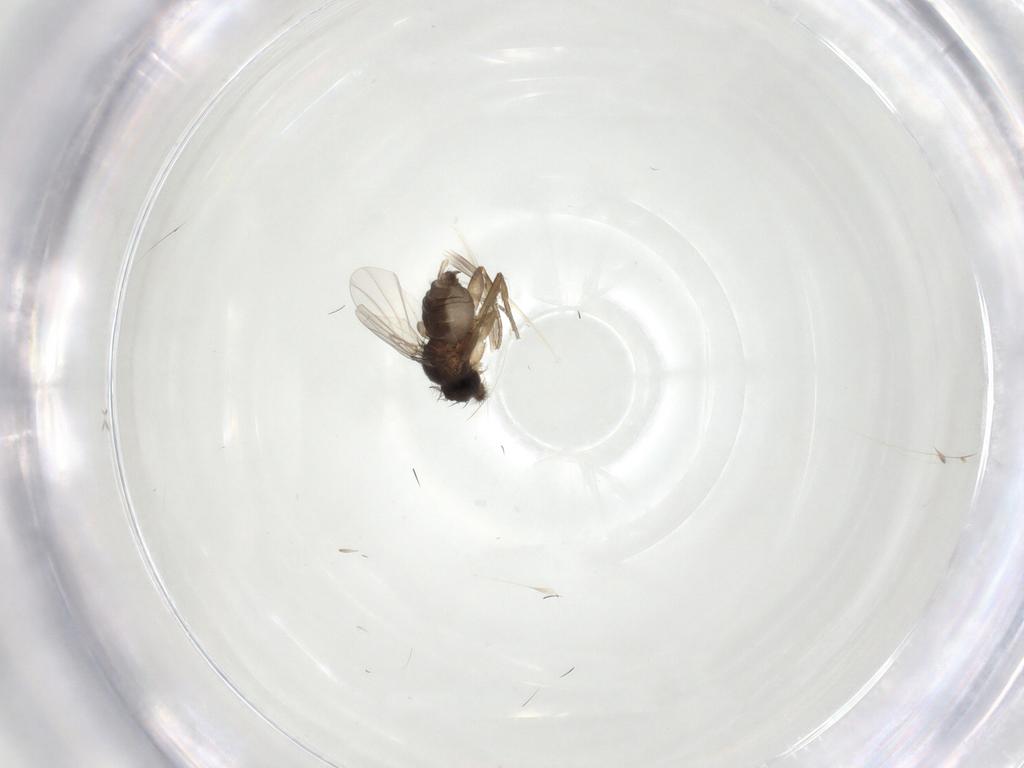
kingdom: Animalia
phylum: Arthropoda
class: Insecta
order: Diptera
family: Phoridae
